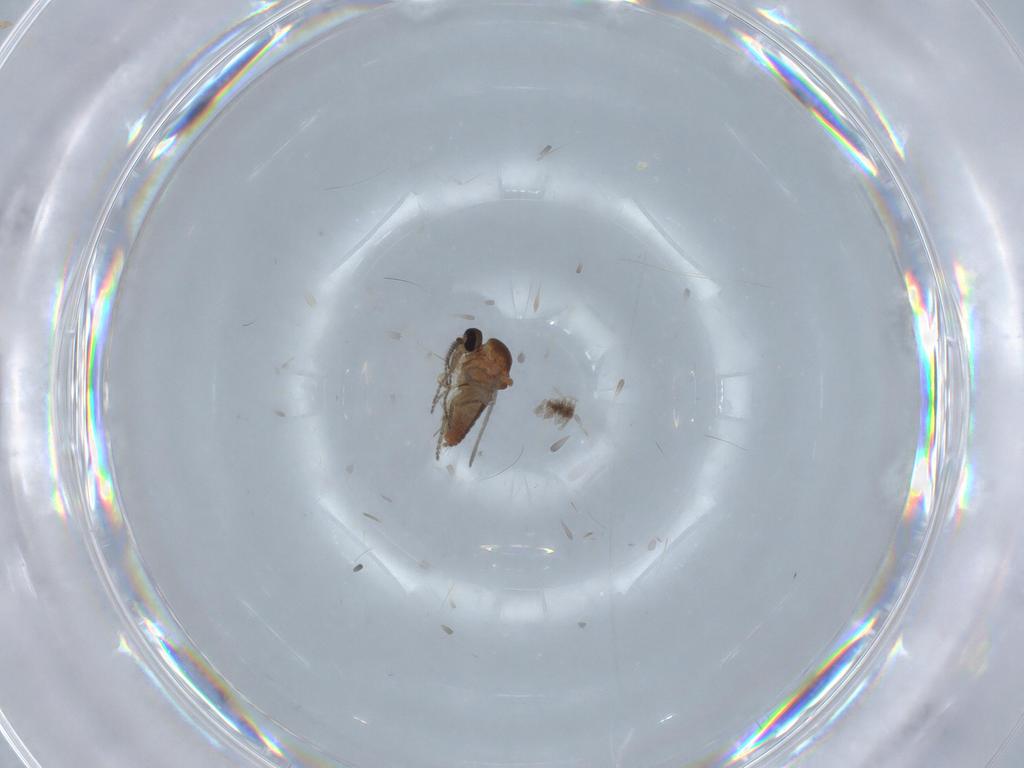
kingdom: Animalia
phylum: Arthropoda
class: Insecta
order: Diptera
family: Ceratopogonidae
